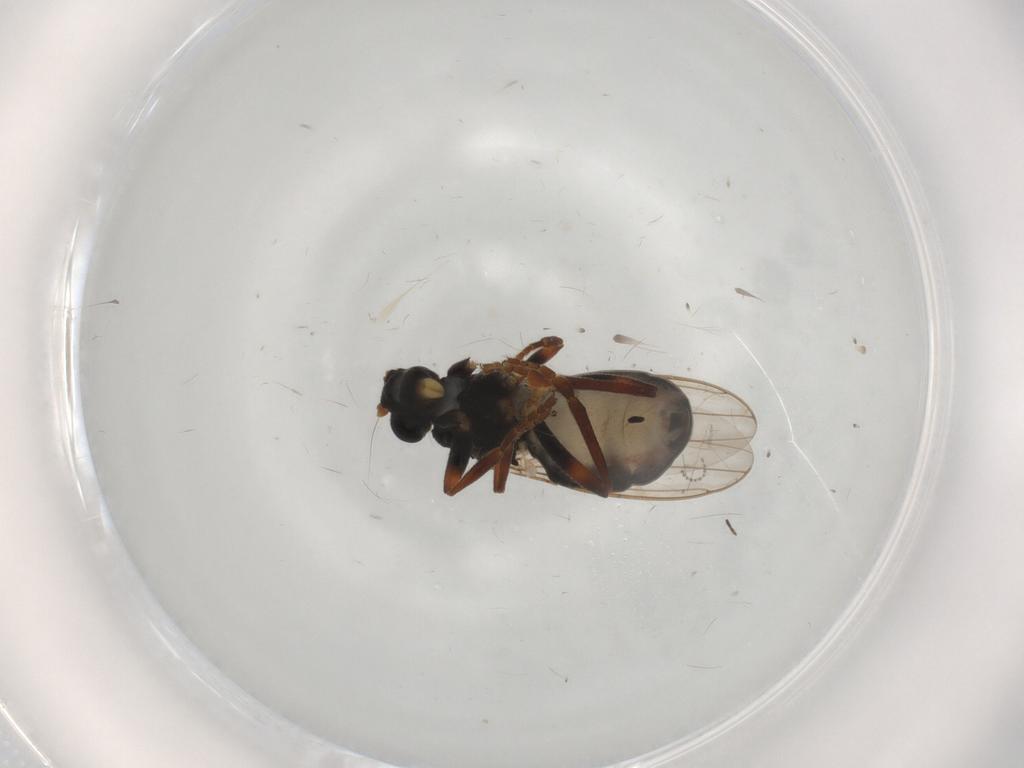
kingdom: Animalia
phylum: Arthropoda
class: Insecta
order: Diptera
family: Sphaeroceridae
